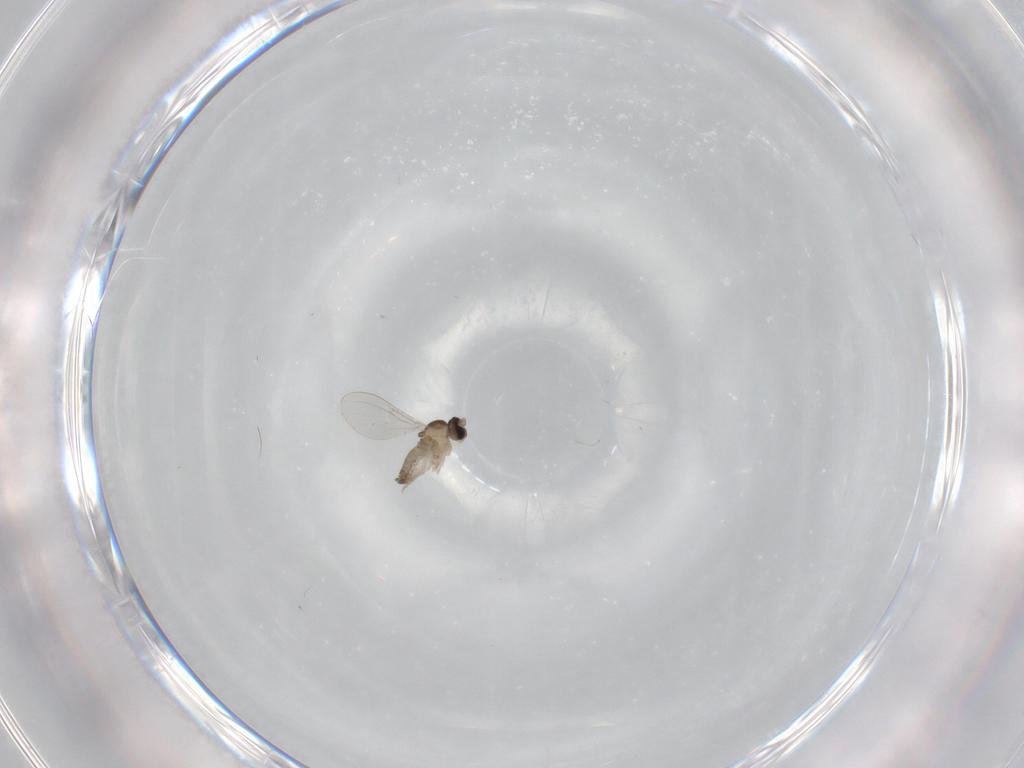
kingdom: Animalia
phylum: Arthropoda
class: Insecta
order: Diptera
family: Cecidomyiidae
